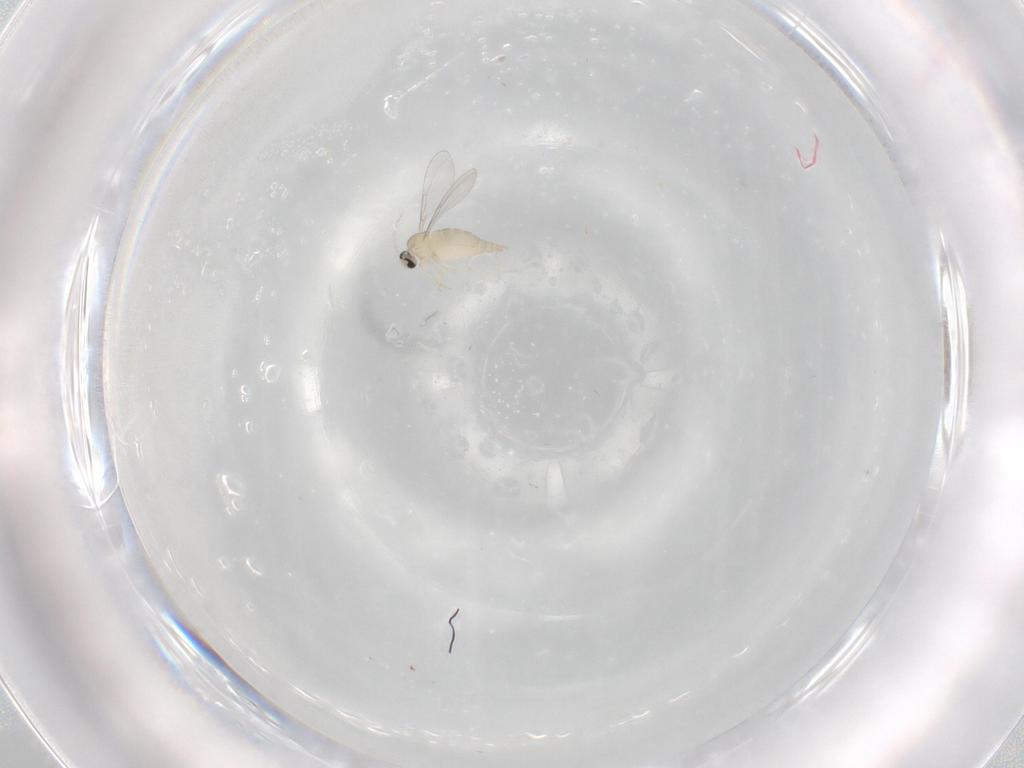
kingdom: Animalia
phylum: Arthropoda
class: Insecta
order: Diptera
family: Cecidomyiidae
